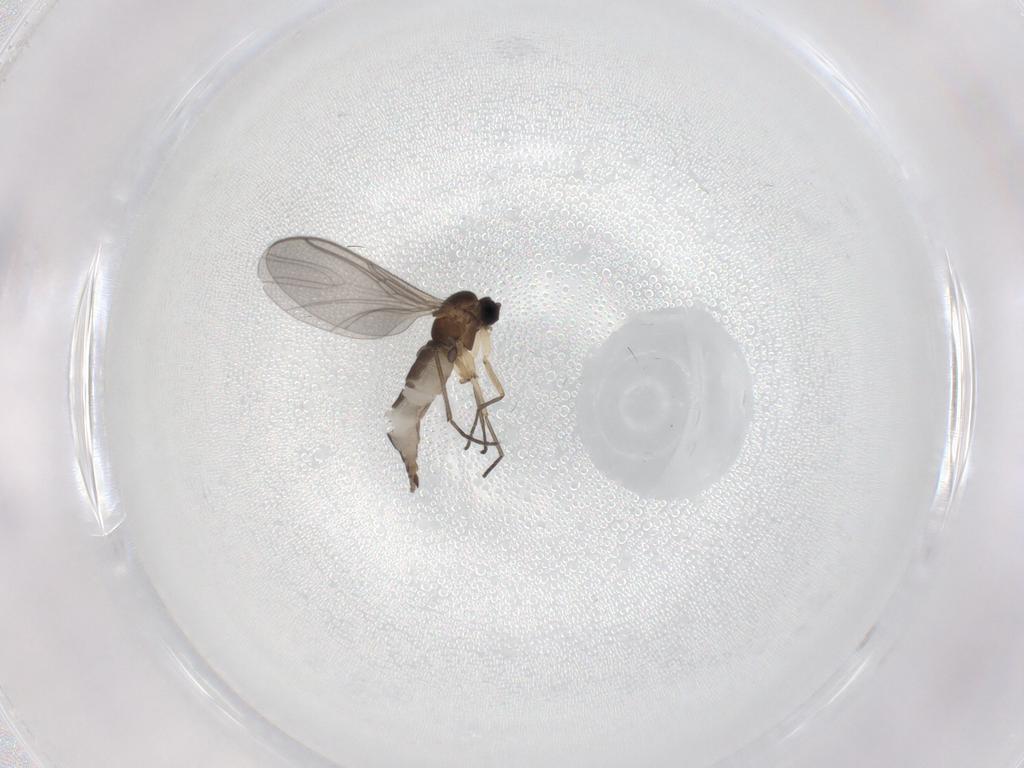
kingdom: Animalia
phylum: Arthropoda
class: Insecta
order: Diptera
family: Sciaridae
